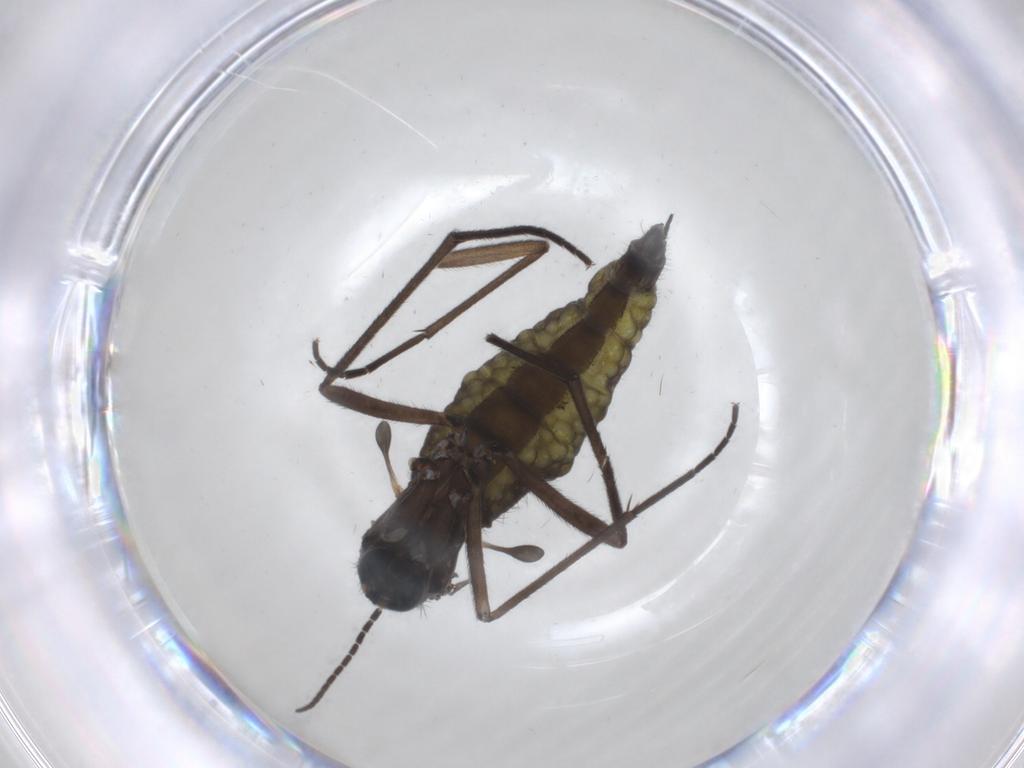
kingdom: Animalia
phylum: Arthropoda
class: Insecta
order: Diptera
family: Sciaridae
